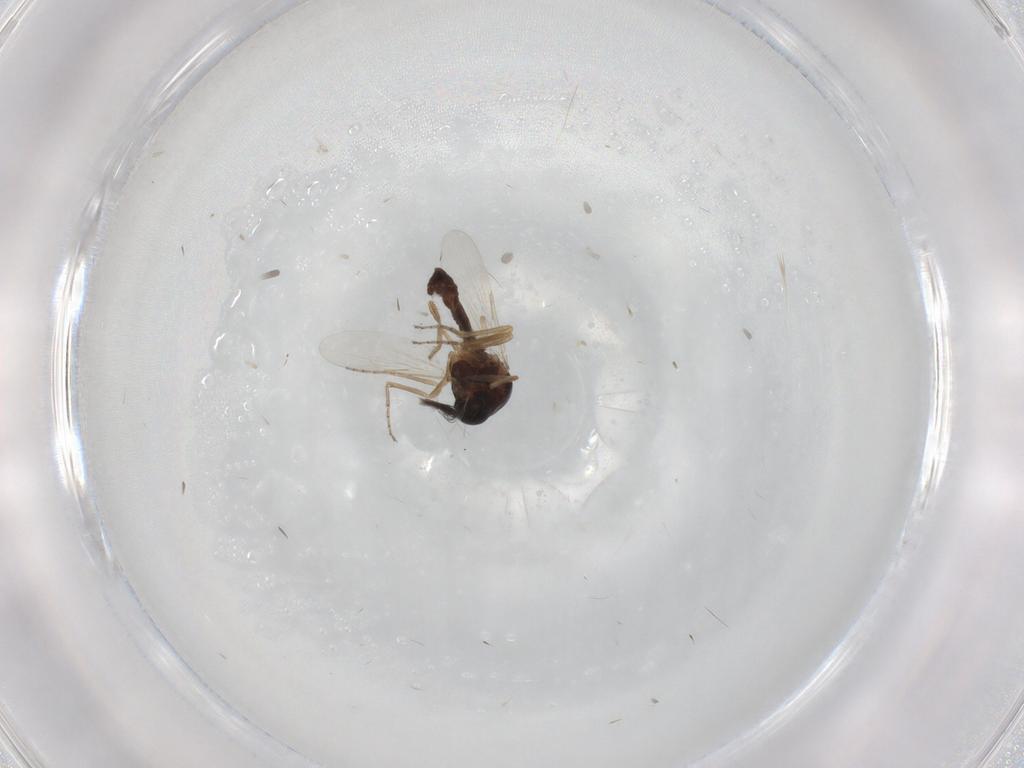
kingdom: Animalia
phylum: Arthropoda
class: Insecta
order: Diptera
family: Ceratopogonidae
